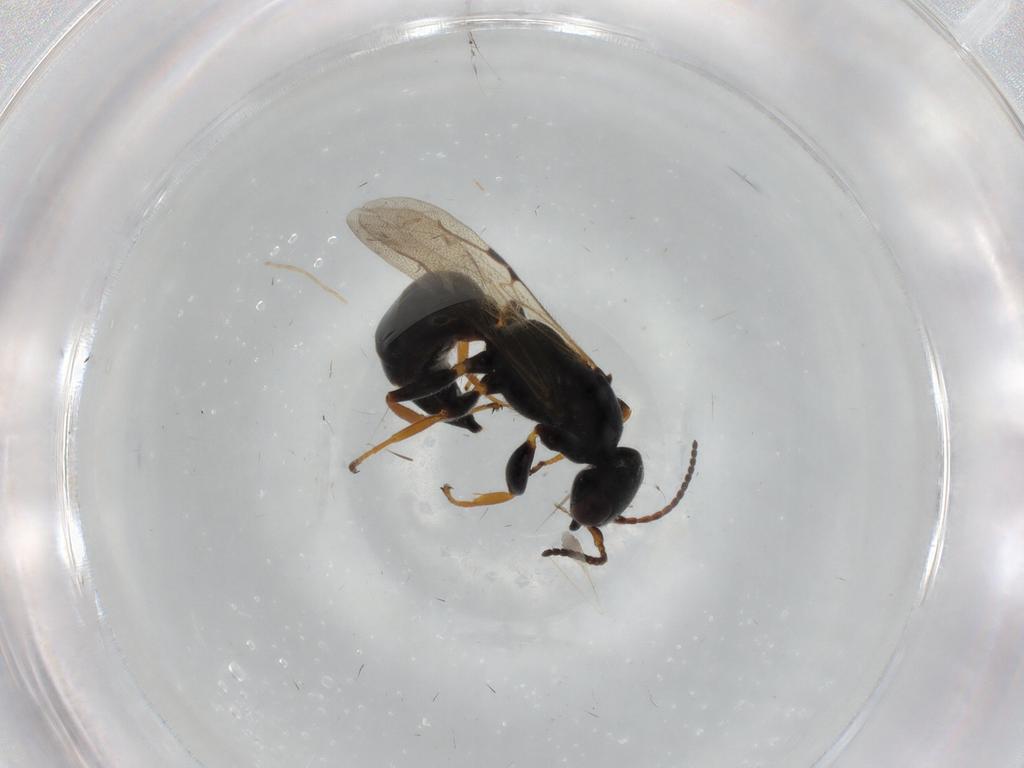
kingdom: Animalia
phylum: Arthropoda
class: Insecta
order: Hymenoptera
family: Bethylidae
